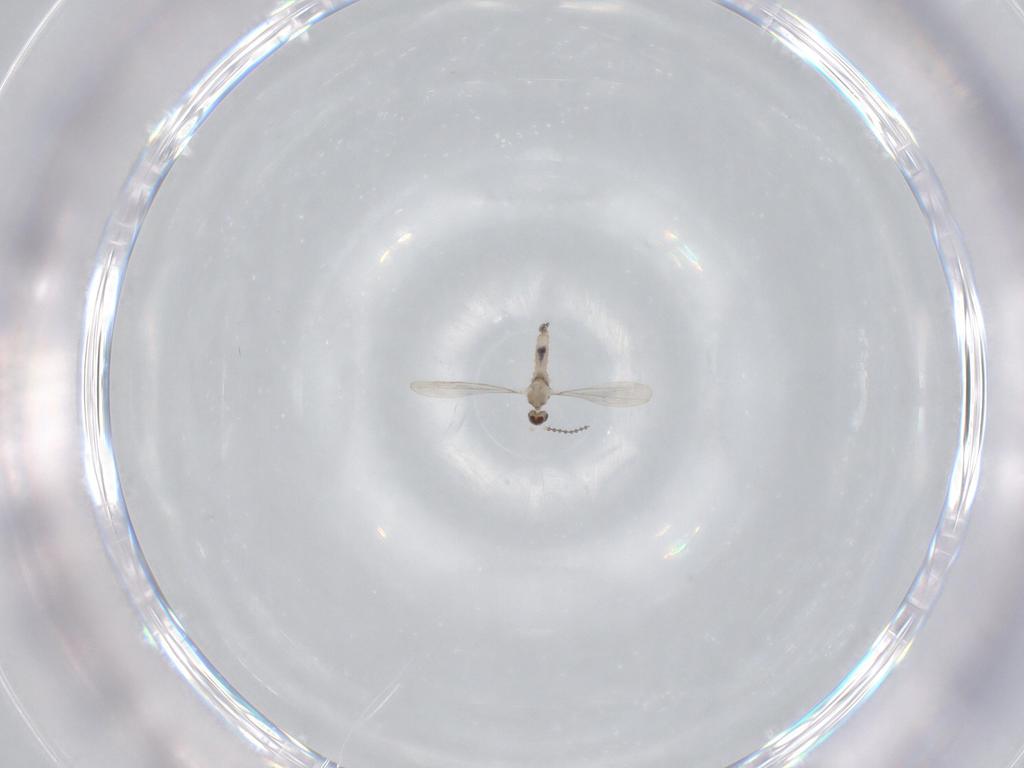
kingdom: Animalia
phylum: Arthropoda
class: Insecta
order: Diptera
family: Cecidomyiidae
